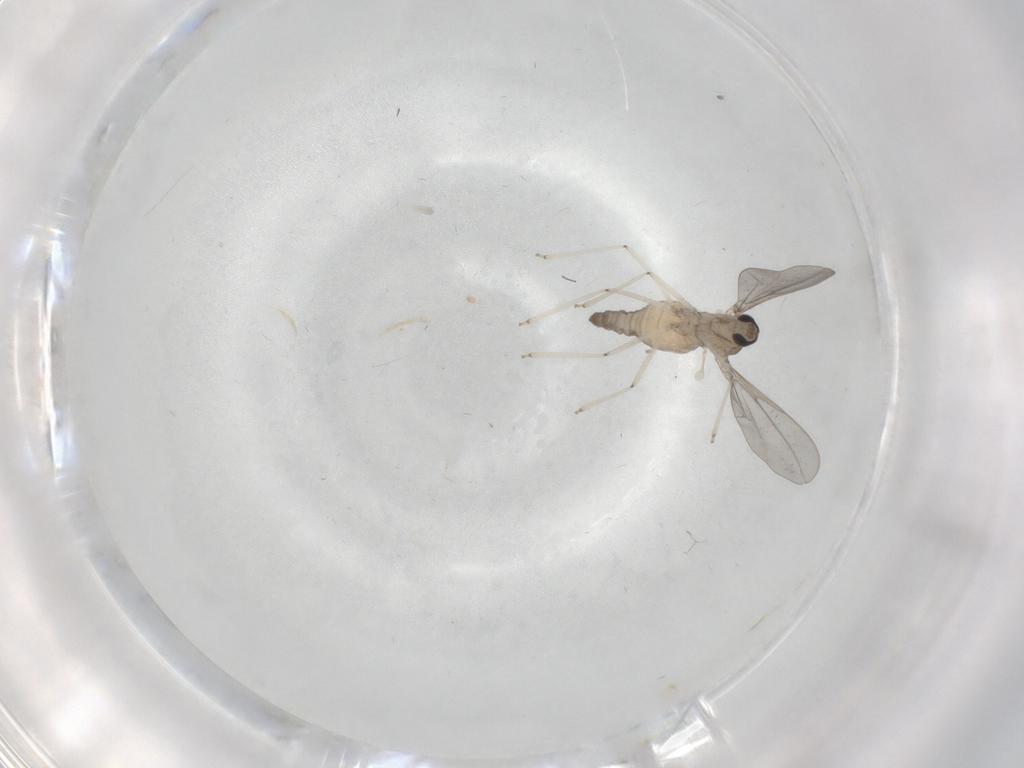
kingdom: Animalia
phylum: Arthropoda
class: Insecta
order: Diptera
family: Cecidomyiidae
